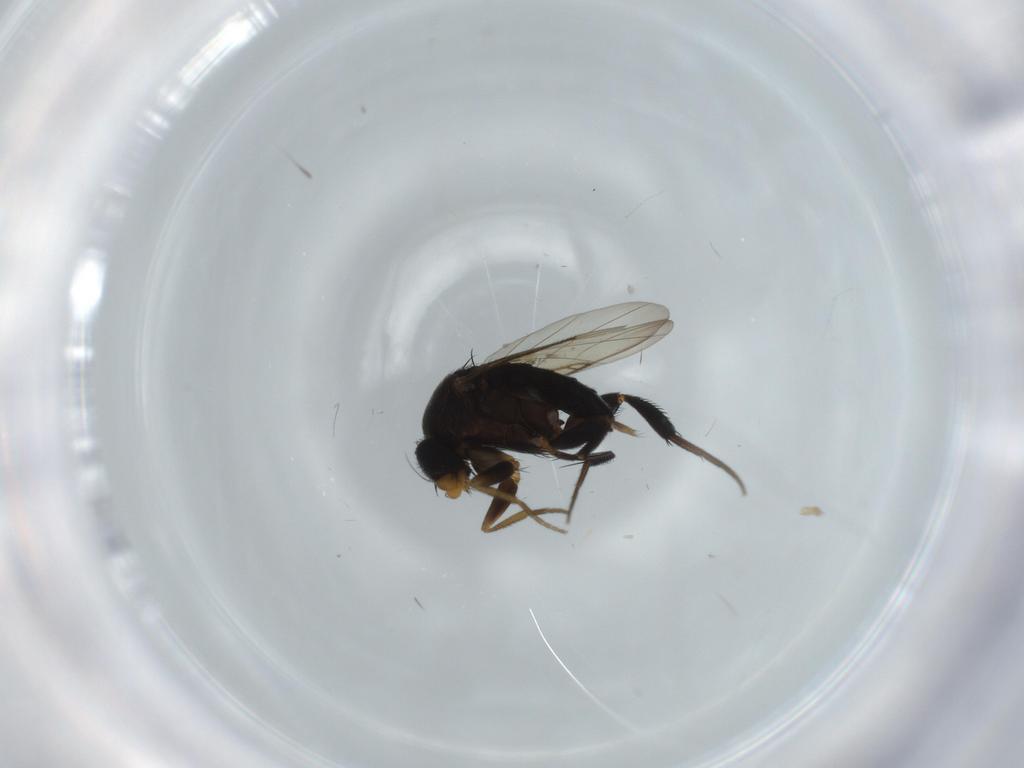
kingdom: Animalia
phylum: Arthropoda
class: Insecta
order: Diptera
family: Phoridae
